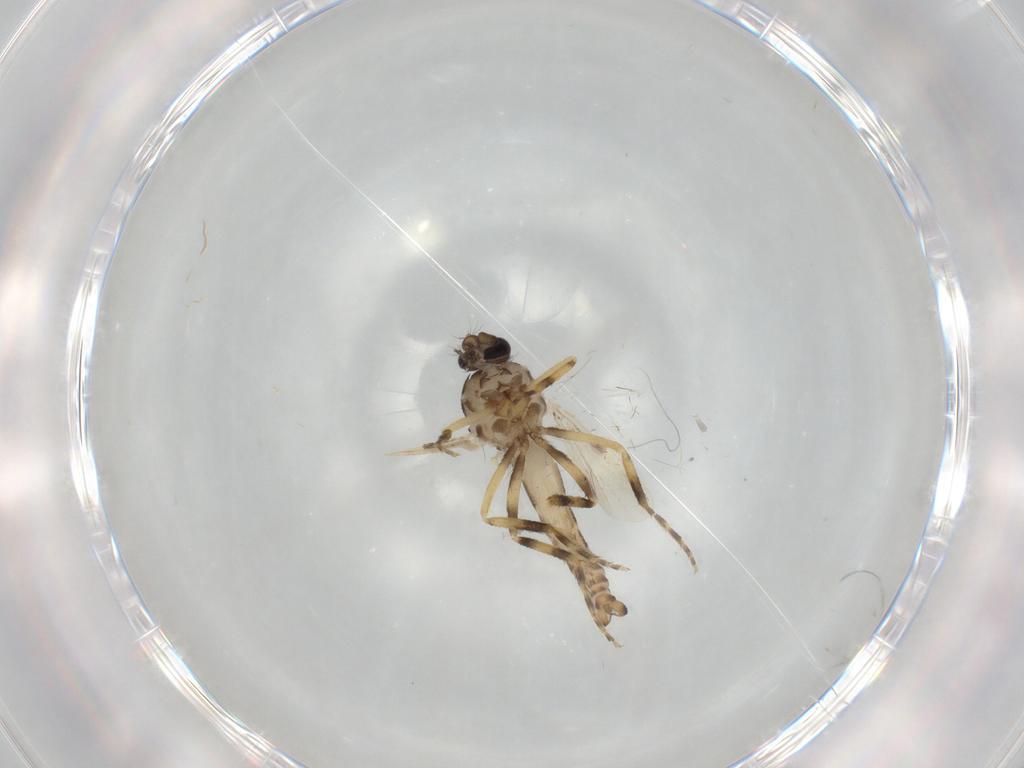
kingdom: Animalia
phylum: Arthropoda
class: Insecta
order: Diptera
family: Ceratopogonidae
